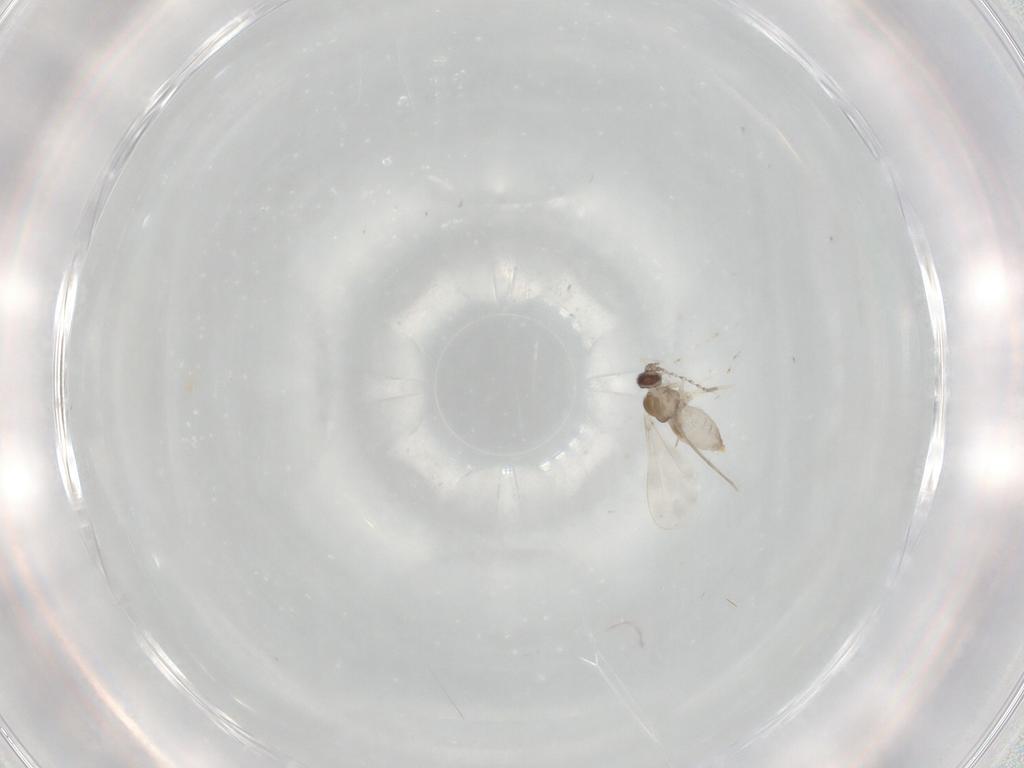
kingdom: Animalia
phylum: Arthropoda
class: Insecta
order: Diptera
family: Cecidomyiidae
